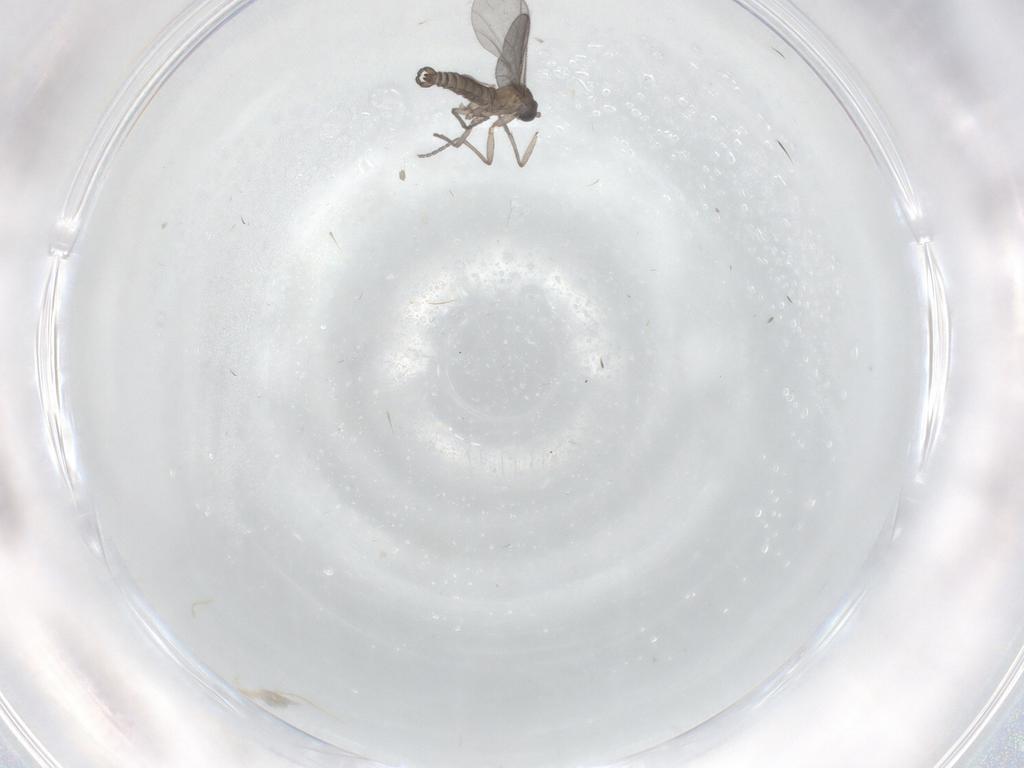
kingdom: Animalia
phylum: Arthropoda
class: Insecta
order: Diptera
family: Sciaridae
